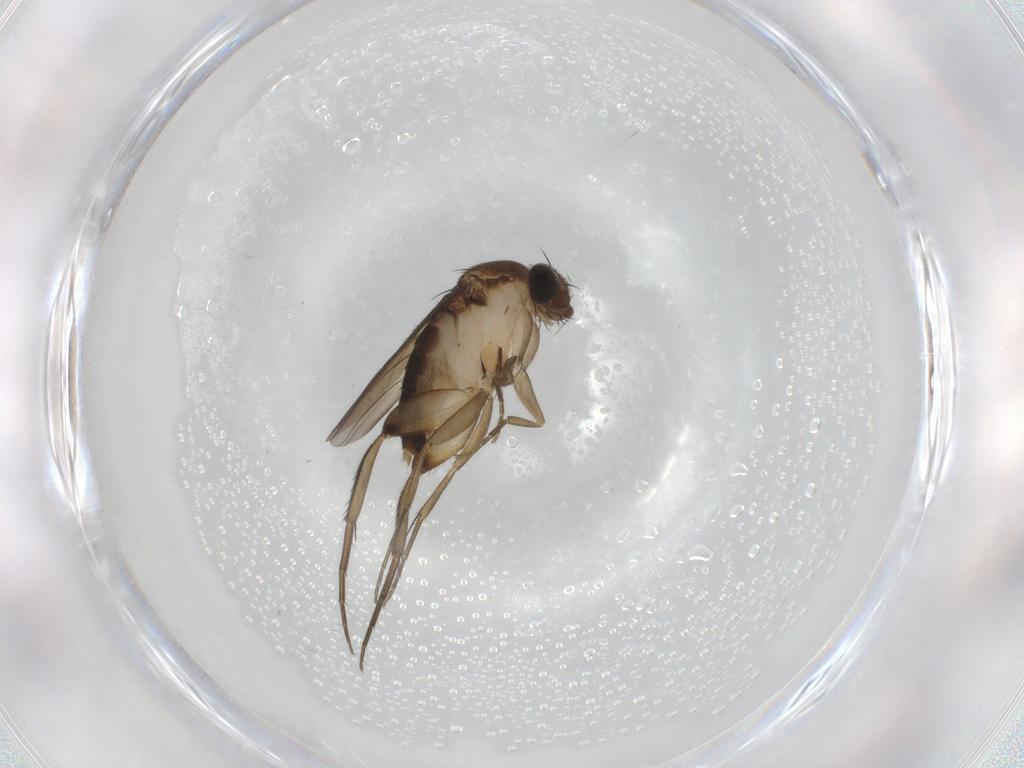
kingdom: Animalia
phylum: Arthropoda
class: Insecta
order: Diptera
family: Phoridae
